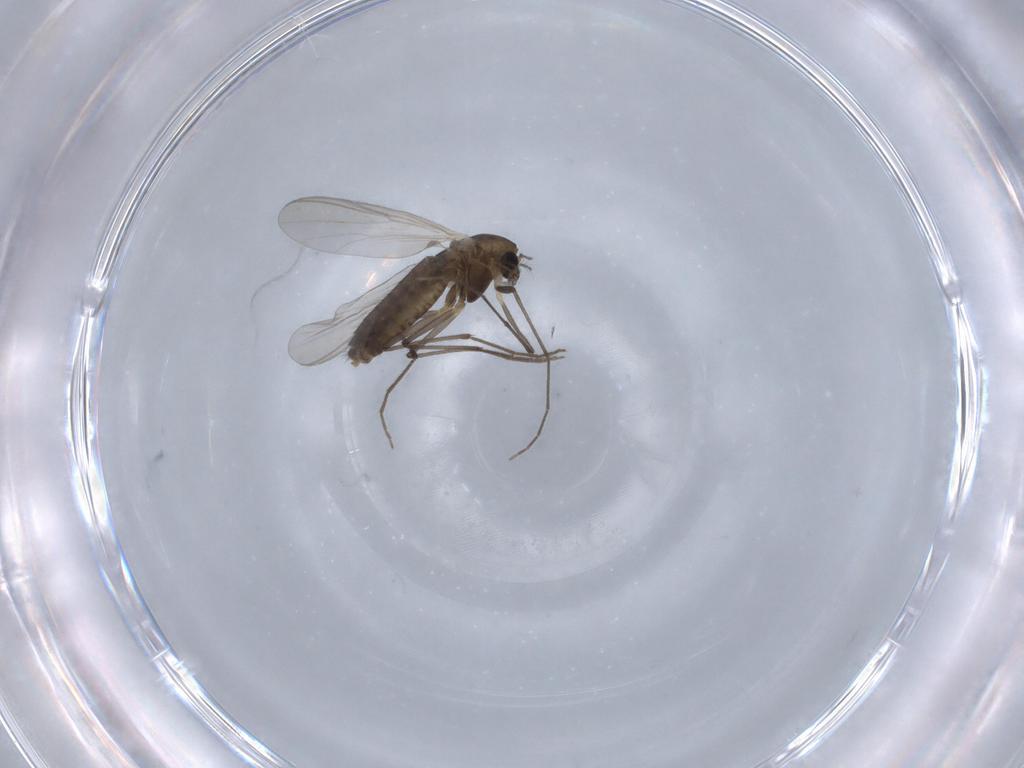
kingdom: Animalia
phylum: Arthropoda
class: Insecta
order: Diptera
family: Chironomidae
